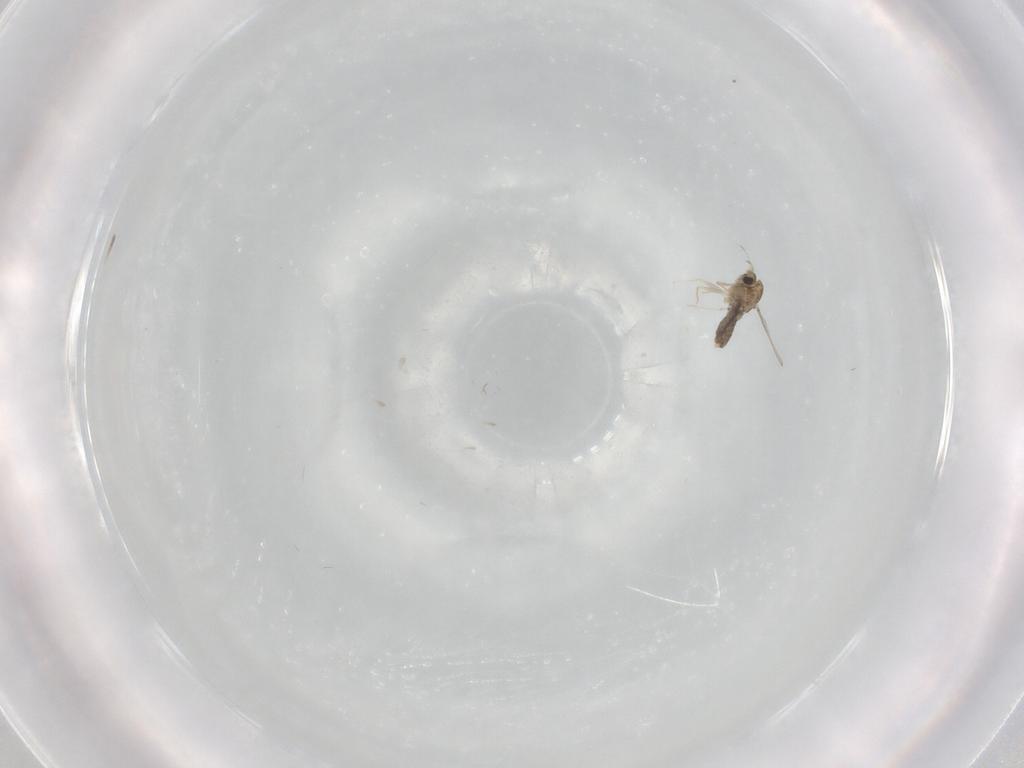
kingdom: Animalia
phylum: Arthropoda
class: Insecta
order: Diptera
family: Chironomidae
